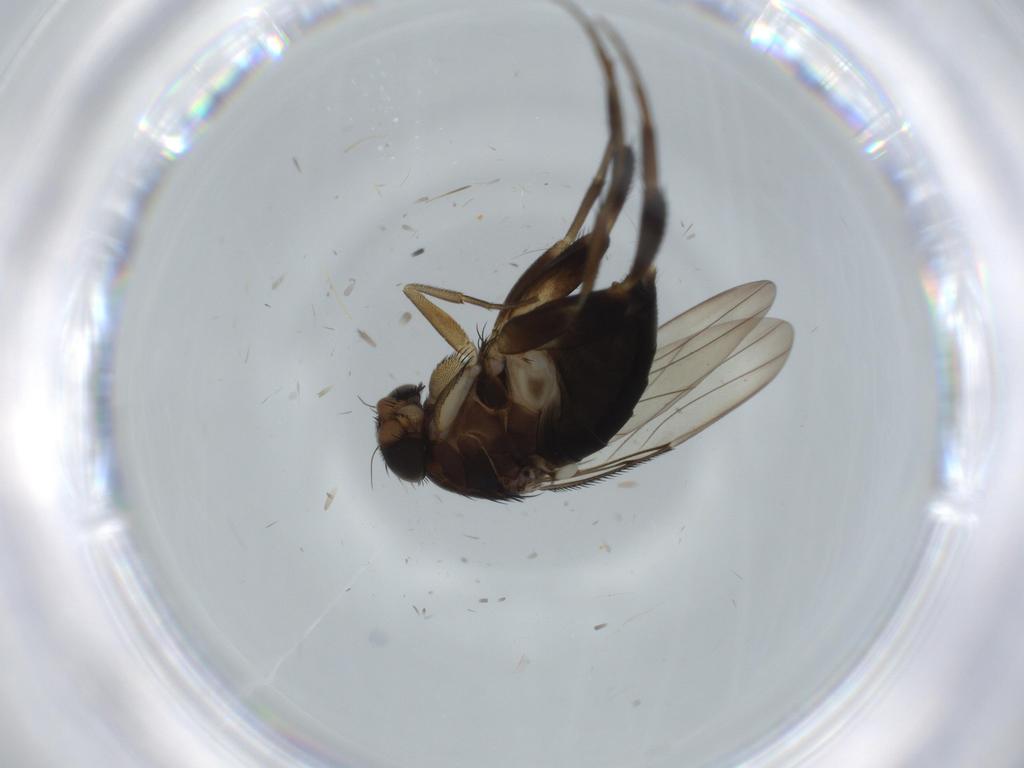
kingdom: Animalia
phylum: Arthropoda
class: Insecta
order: Diptera
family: Phoridae
